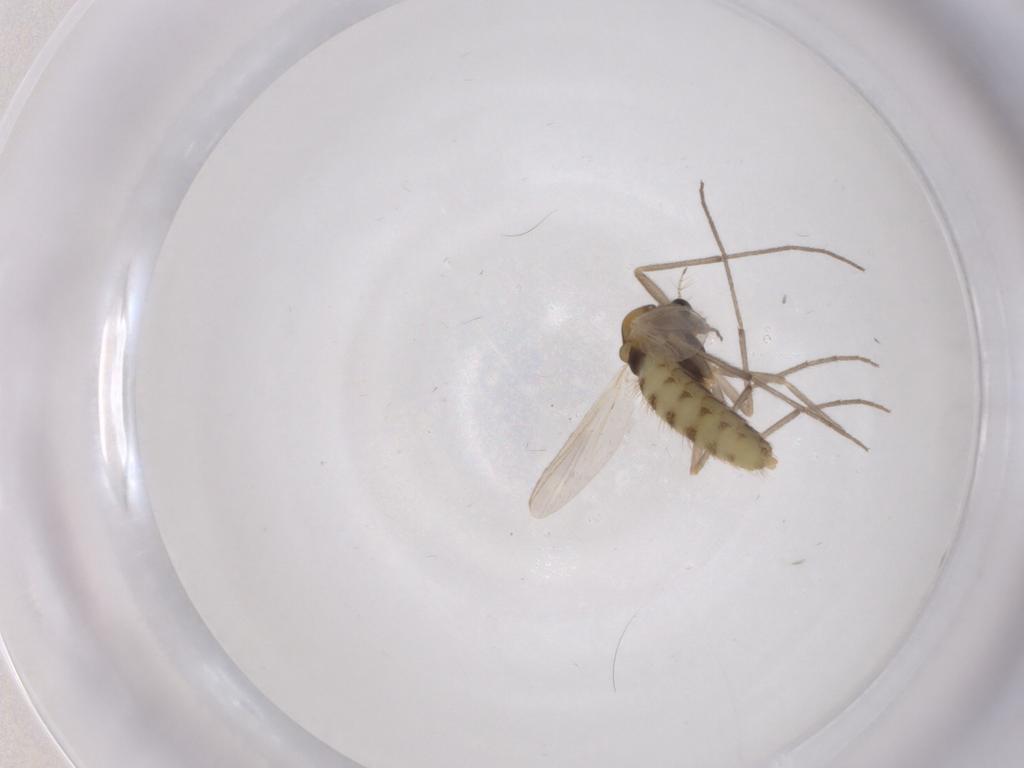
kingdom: Animalia
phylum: Arthropoda
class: Insecta
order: Diptera
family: Chironomidae
